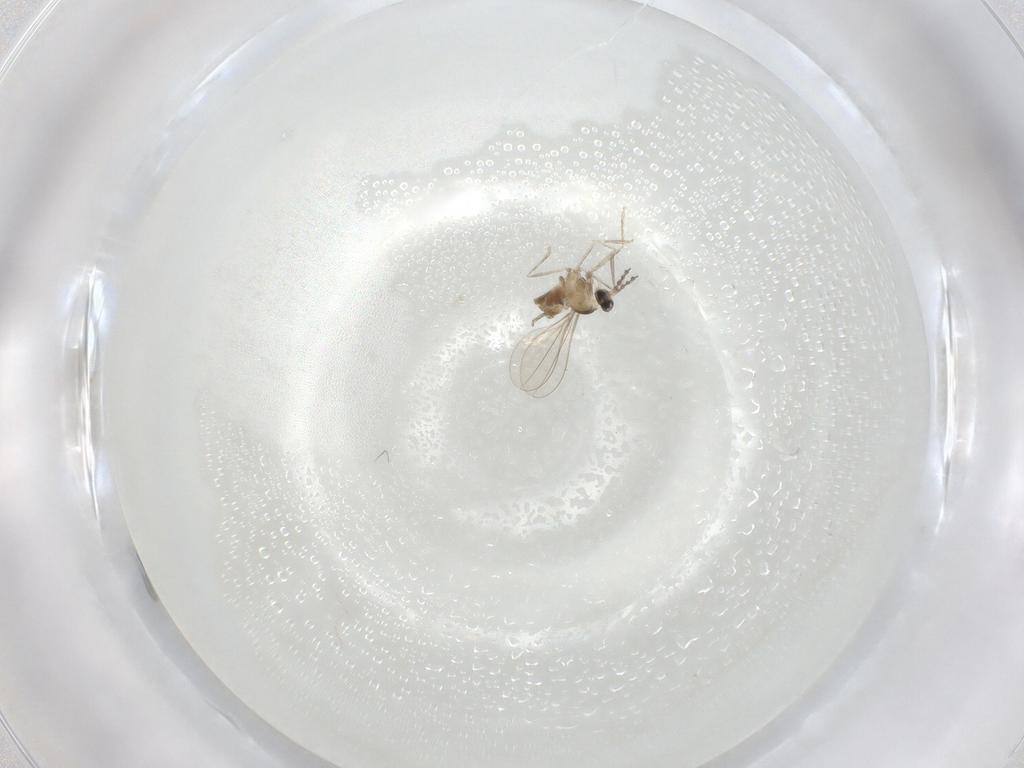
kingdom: Animalia
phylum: Arthropoda
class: Insecta
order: Diptera
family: Cecidomyiidae
